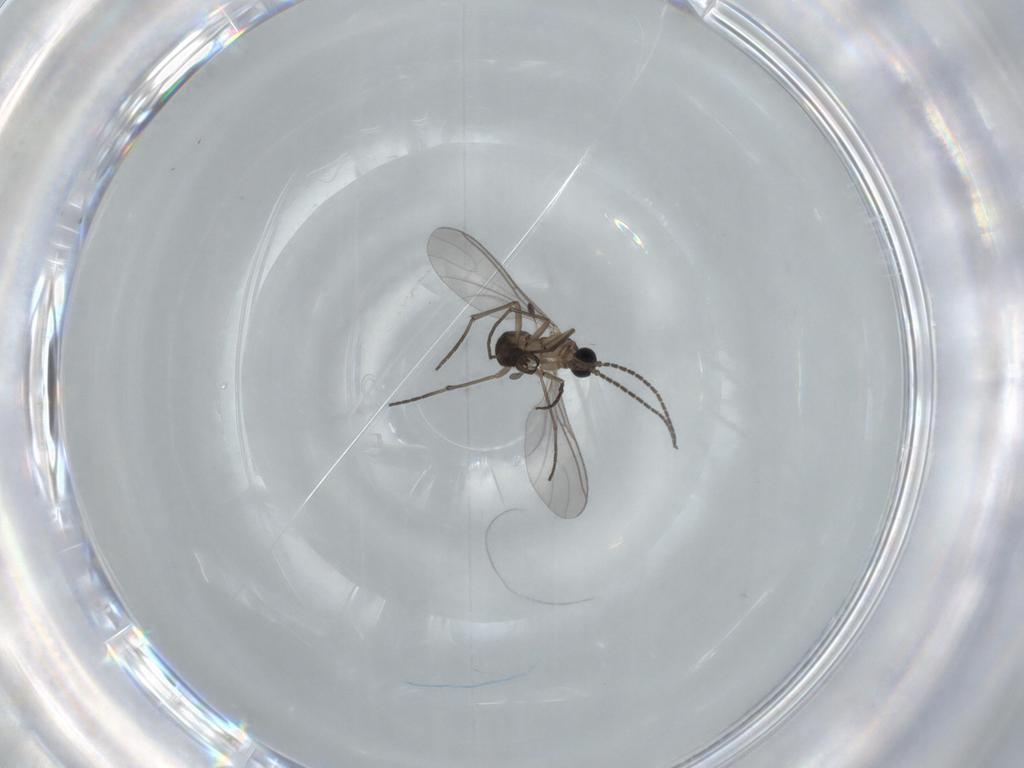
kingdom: Animalia
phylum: Arthropoda
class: Insecta
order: Diptera
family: Sciaridae
